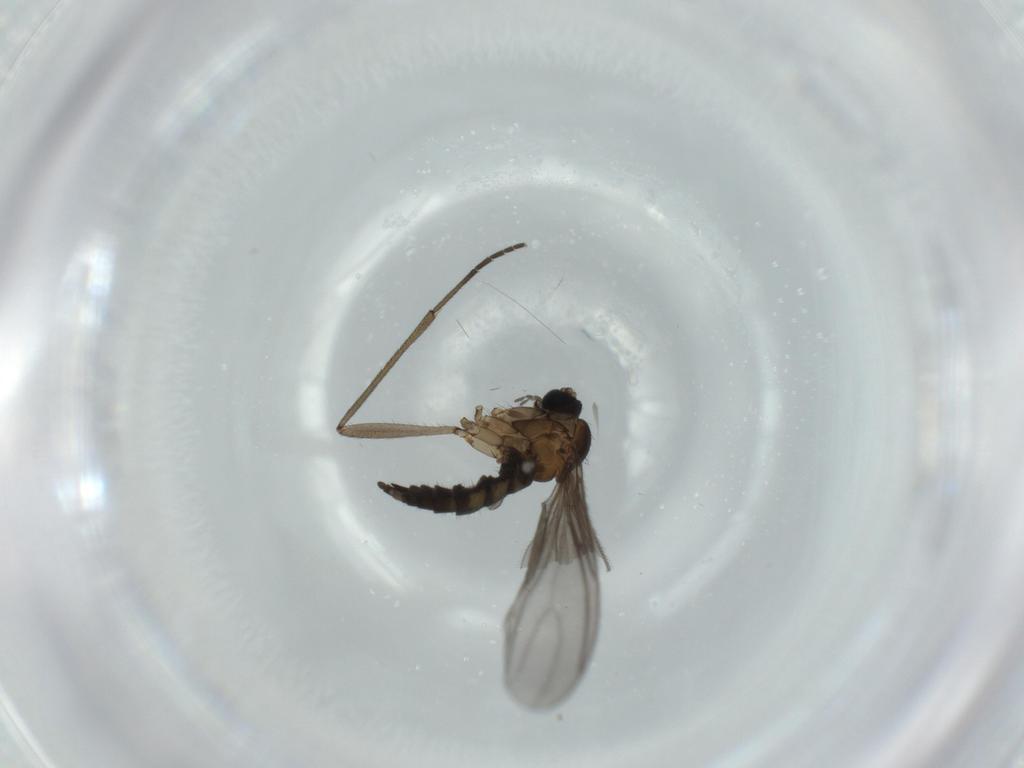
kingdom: Animalia
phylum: Arthropoda
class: Insecta
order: Diptera
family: Sciaridae
